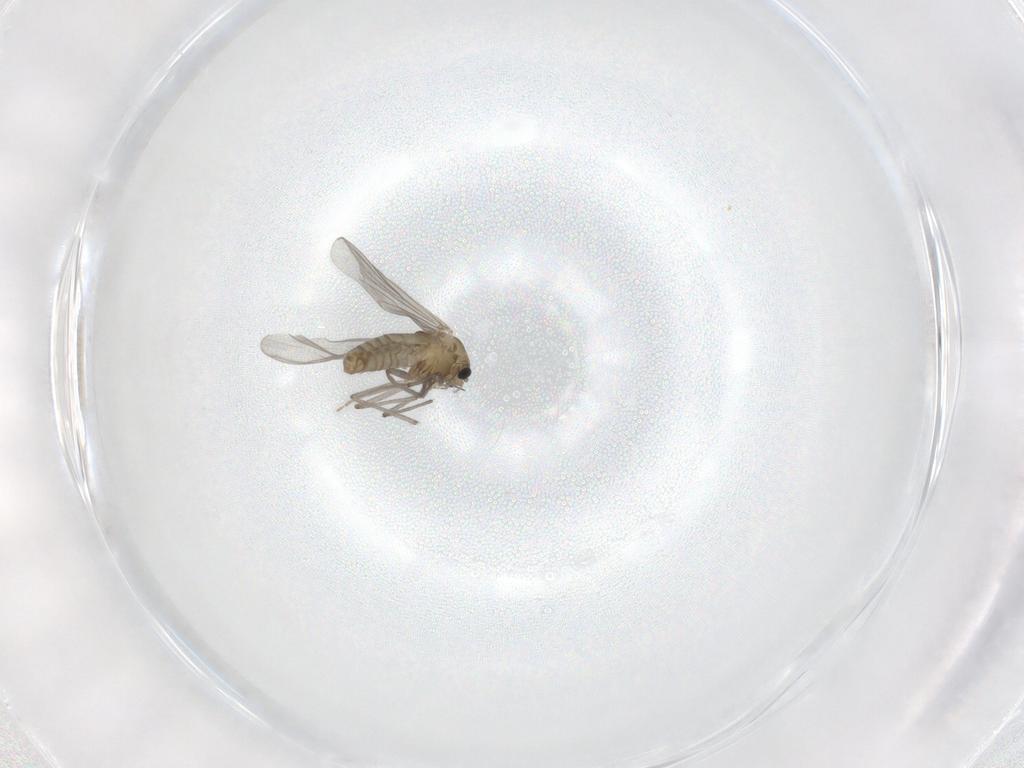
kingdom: Animalia
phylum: Arthropoda
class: Insecta
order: Diptera
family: Chironomidae
